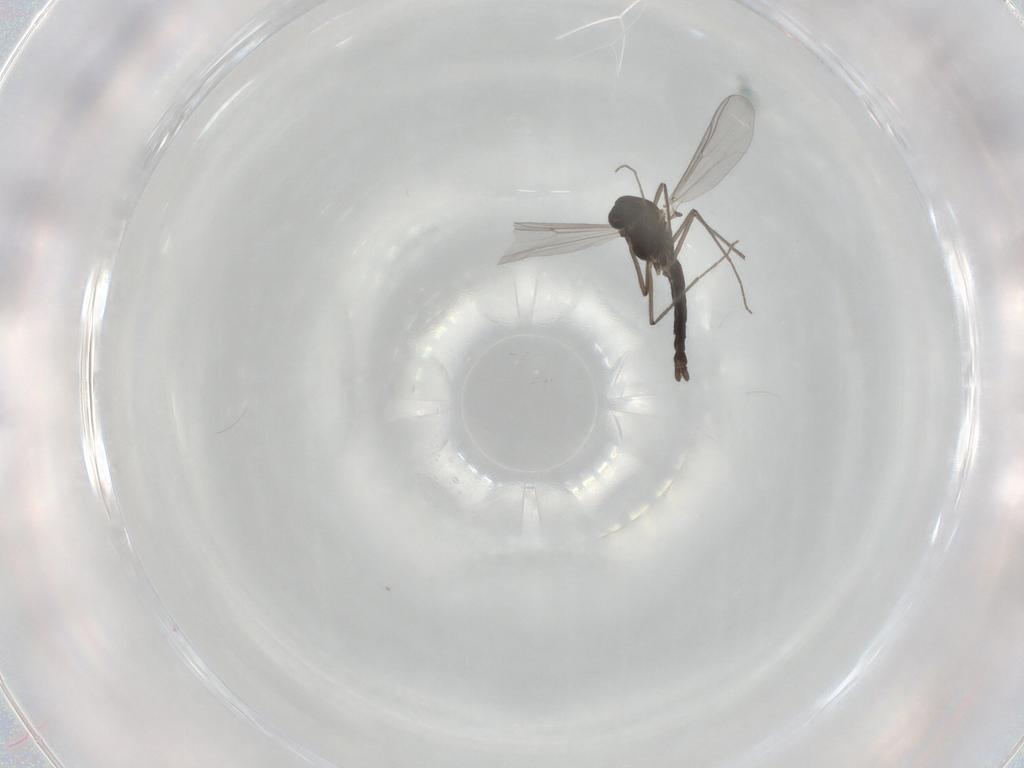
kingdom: Animalia
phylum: Arthropoda
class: Insecta
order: Diptera
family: Chironomidae
